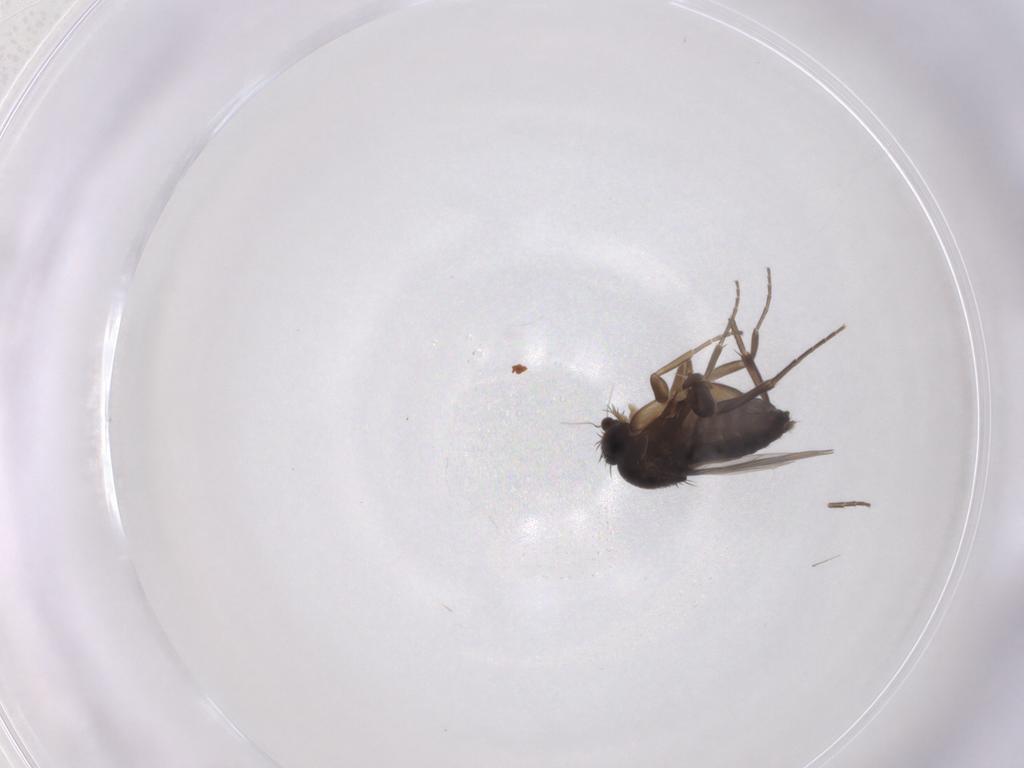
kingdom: Animalia
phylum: Arthropoda
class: Insecta
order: Diptera
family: Phoridae
